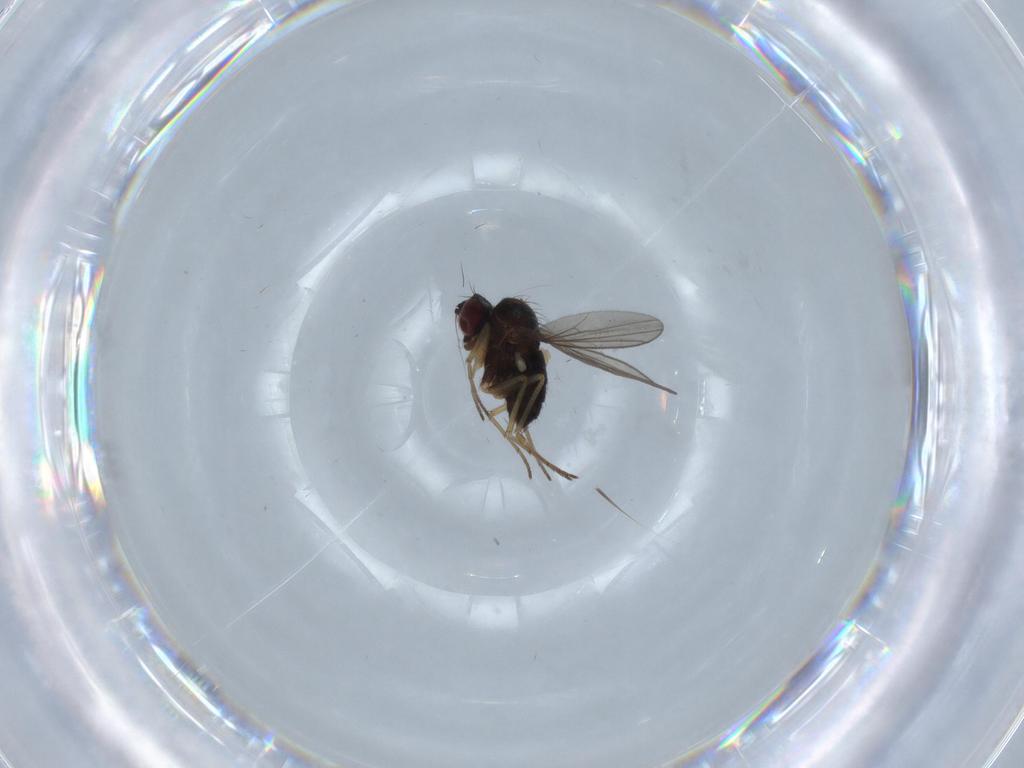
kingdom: Animalia
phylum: Arthropoda
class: Insecta
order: Diptera
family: Dolichopodidae
